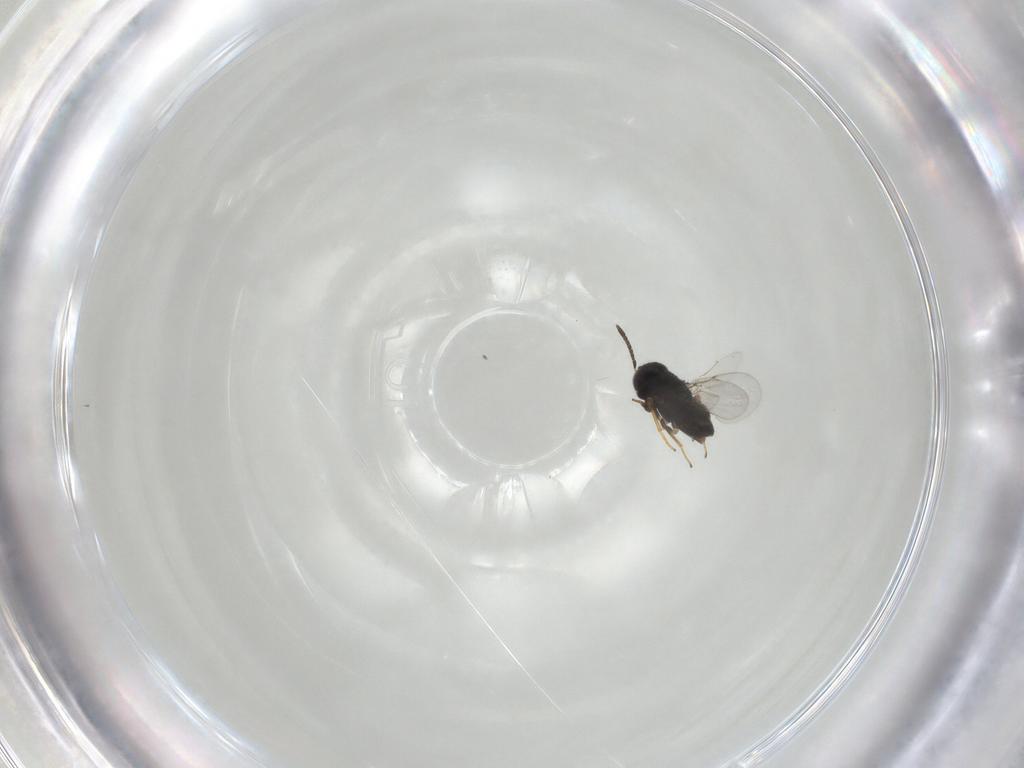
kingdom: Animalia
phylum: Arthropoda
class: Insecta
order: Hymenoptera
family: Encyrtidae
